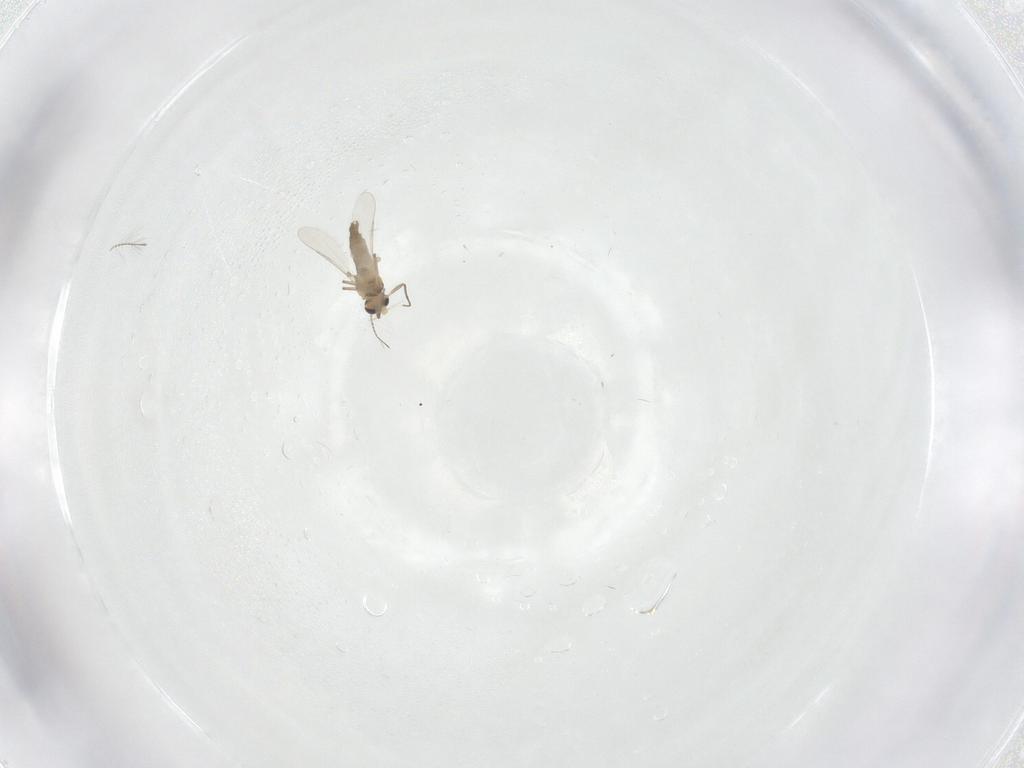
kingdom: Animalia
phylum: Arthropoda
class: Insecta
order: Diptera
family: Chironomidae
